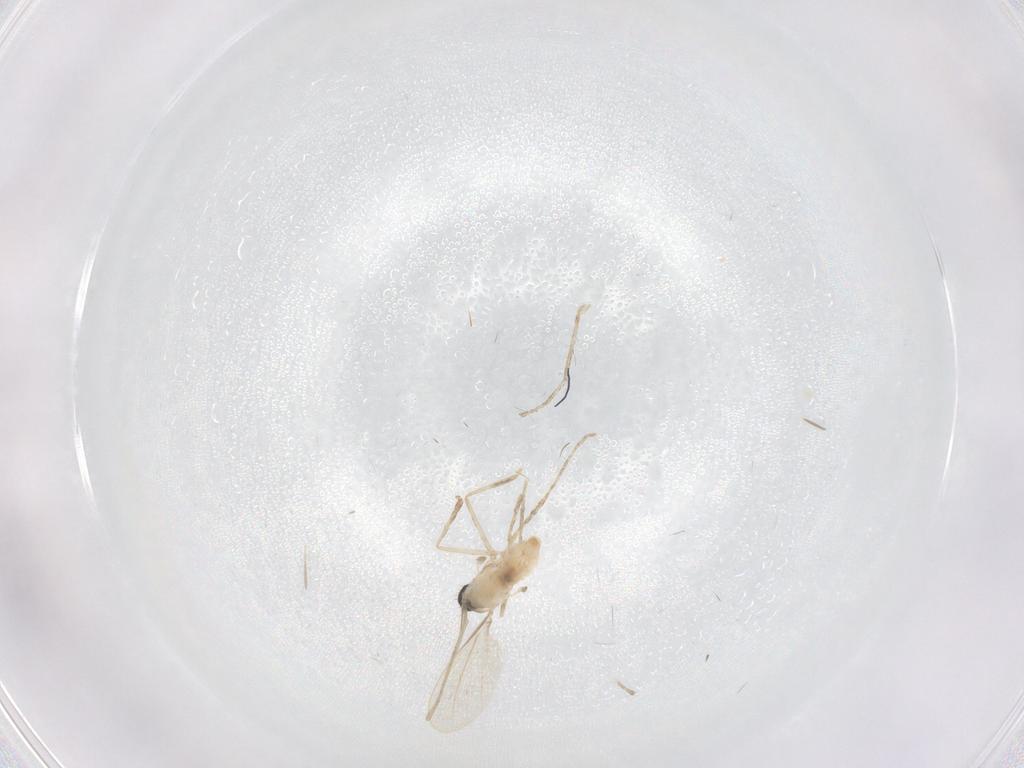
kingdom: Animalia
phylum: Arthropoda
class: Insecta
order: Diptera
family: Cecidomyiidae
